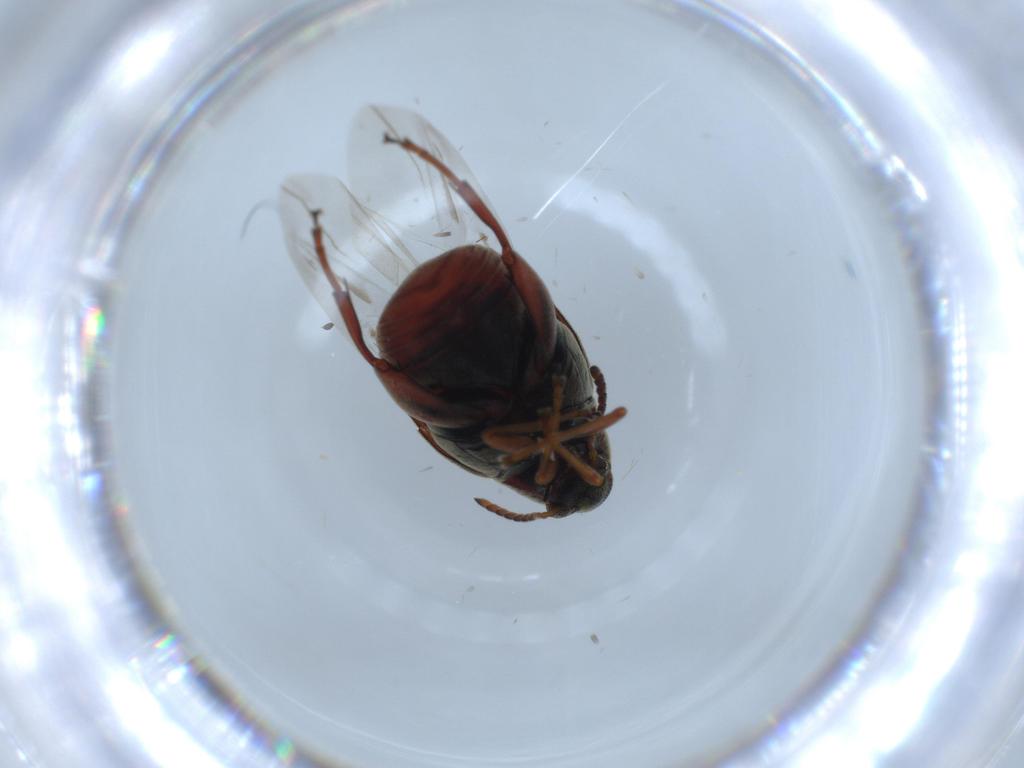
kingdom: Animalia
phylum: Arthropoda
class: Insecta
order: Coleoptera
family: Chrysomelidae
